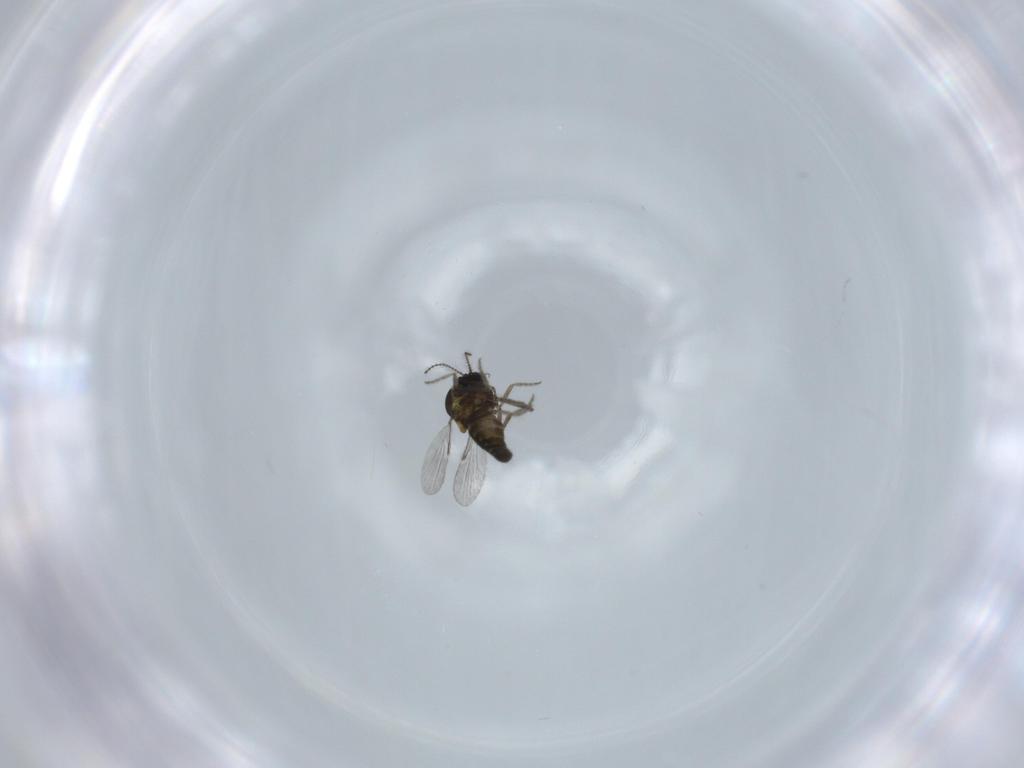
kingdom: Animalia
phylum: Arthropoda
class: Insecta
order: Diptera
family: Ceratopogonidae
